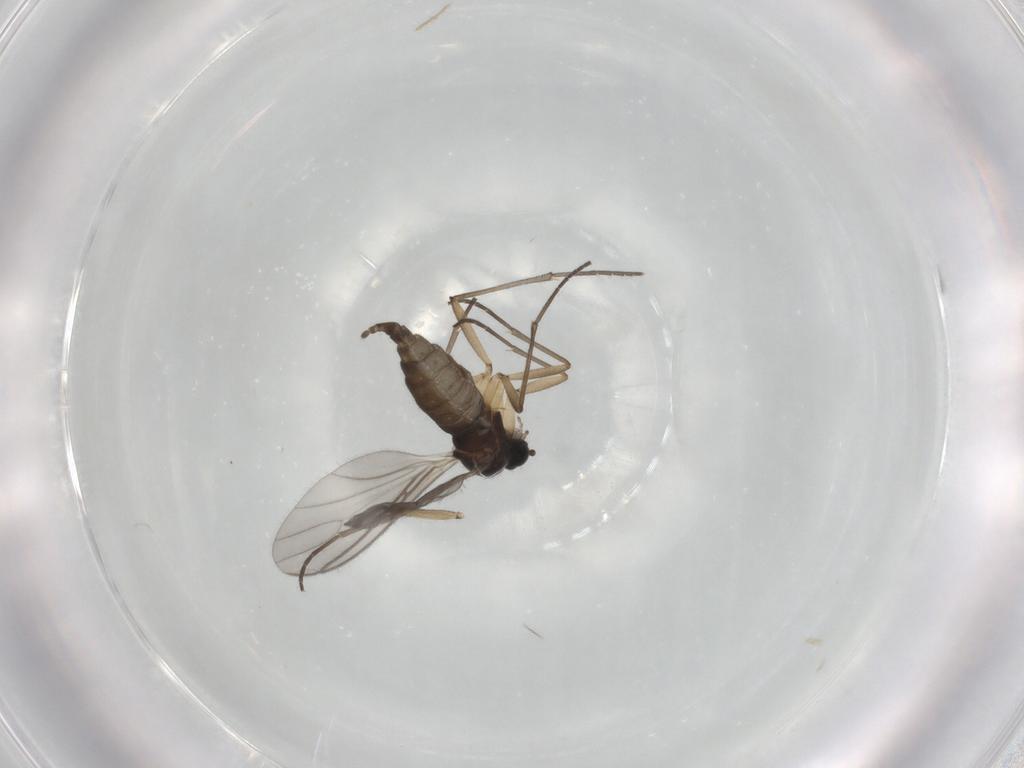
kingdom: Animalia
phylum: Arthropoda
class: Insecta
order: Diptera
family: Sciaridae
